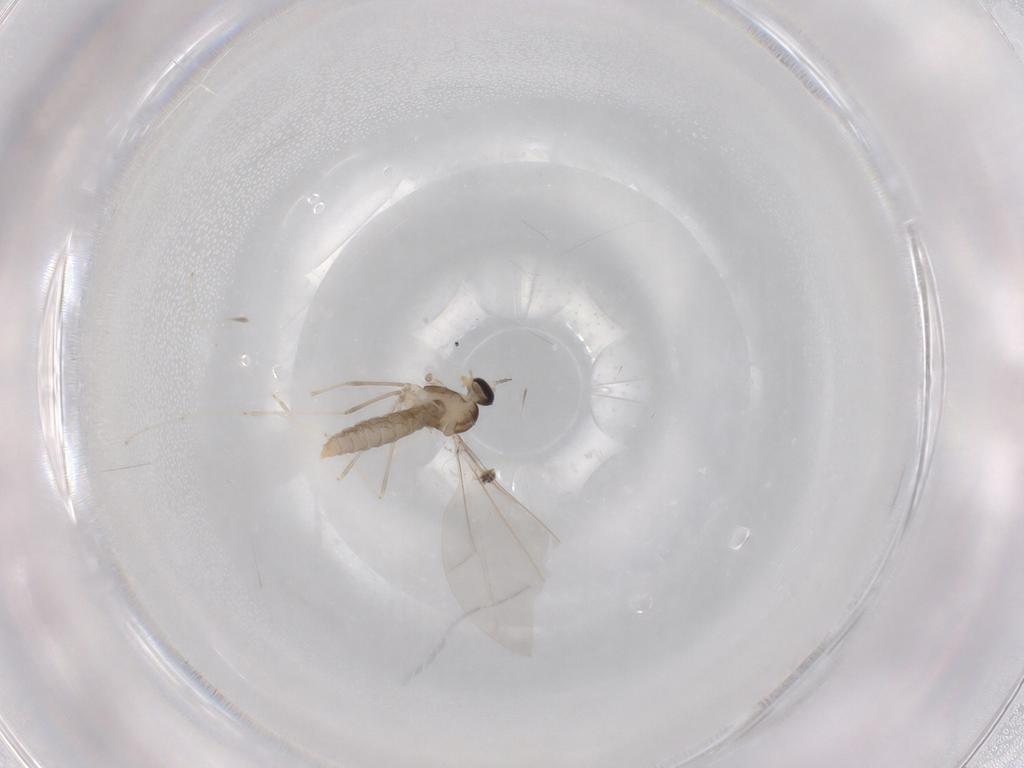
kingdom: Animalia
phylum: Arthropoda
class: Insecta
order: Diptera
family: Cecidomyiidae
